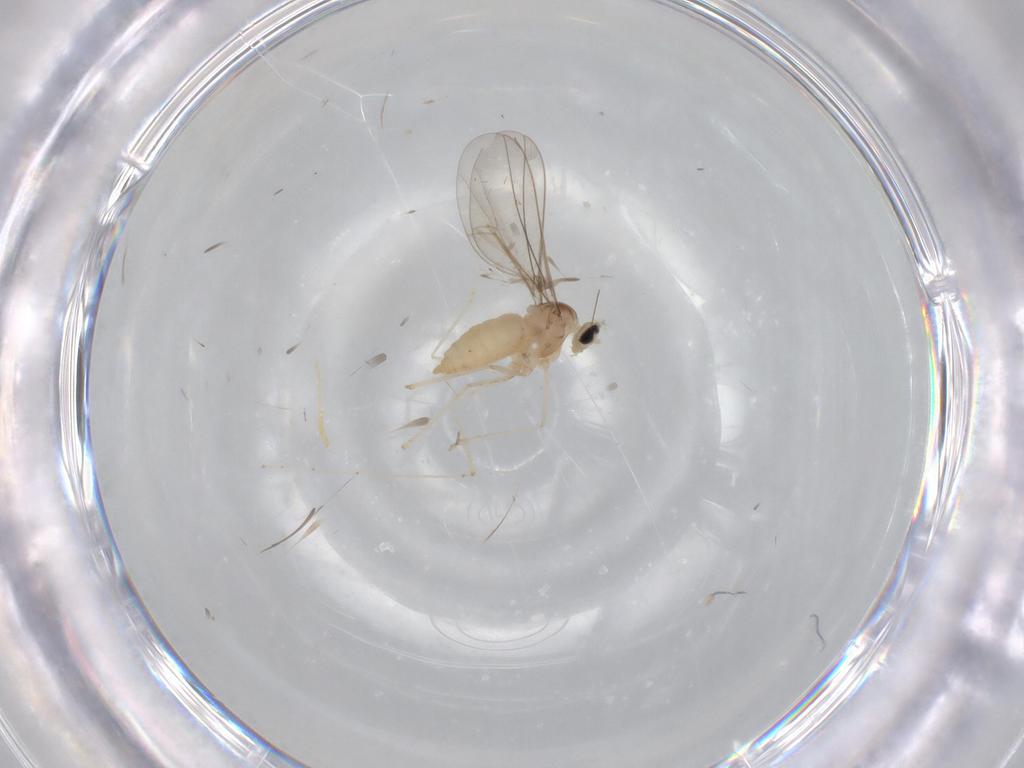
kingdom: Animalia
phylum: Arthropoda
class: Insecta
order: Diptera
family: Cecidomyiidae
